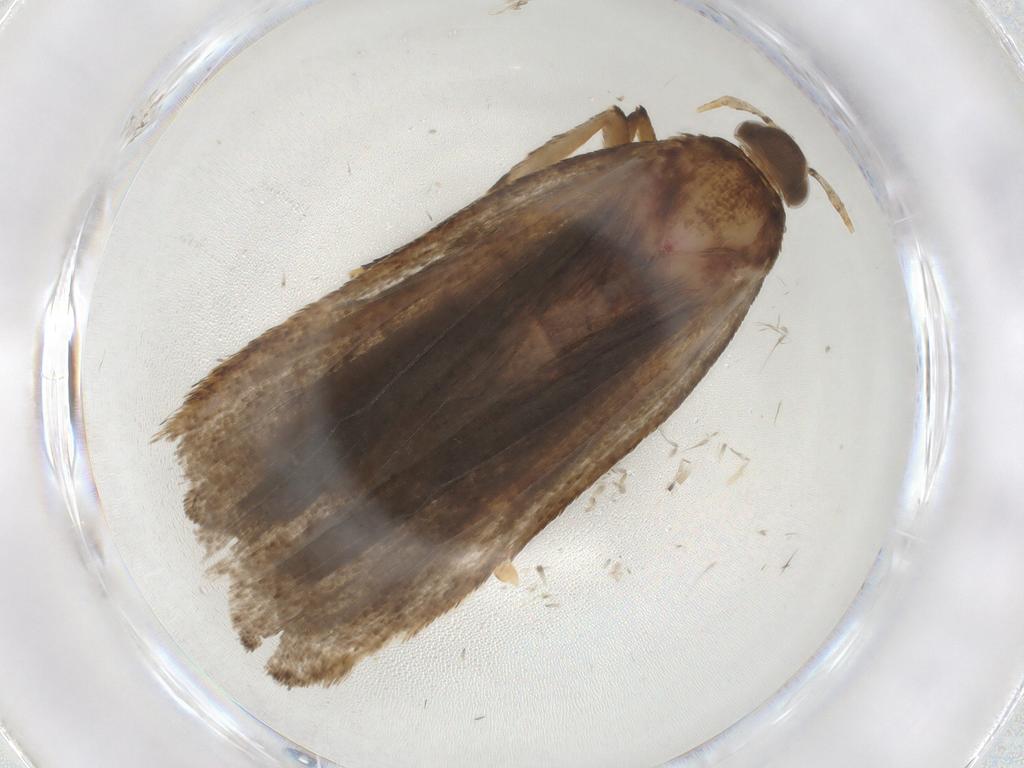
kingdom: Animalia
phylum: Arthropoda
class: Insecta
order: Lepidoptera
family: Autostichidae
